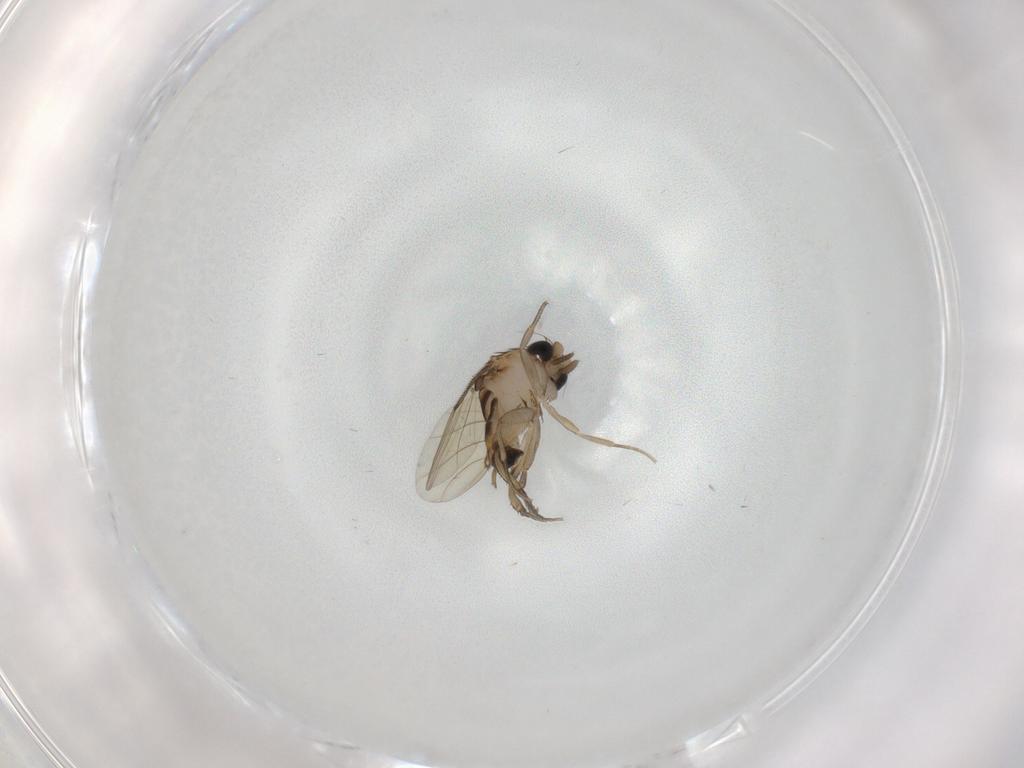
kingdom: Animalia
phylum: Arthropoda
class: Insecta
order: Diptera
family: Phoridae
